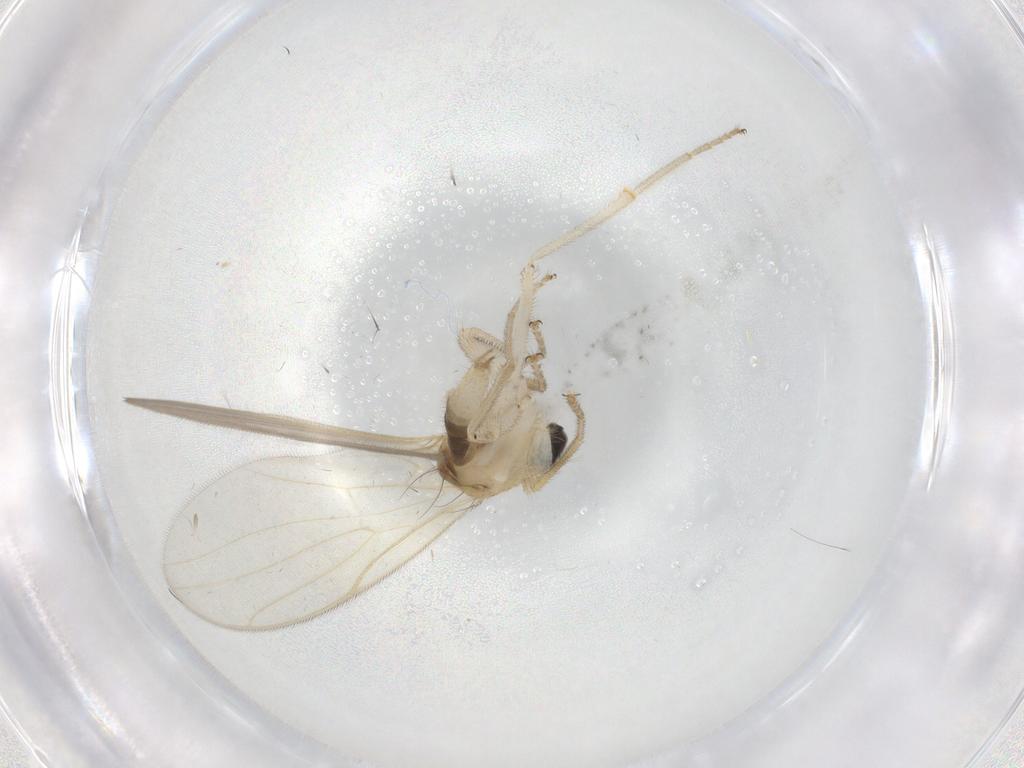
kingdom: Animalia
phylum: Arthropoda
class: Insecta
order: Diptera
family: Hybotidae
